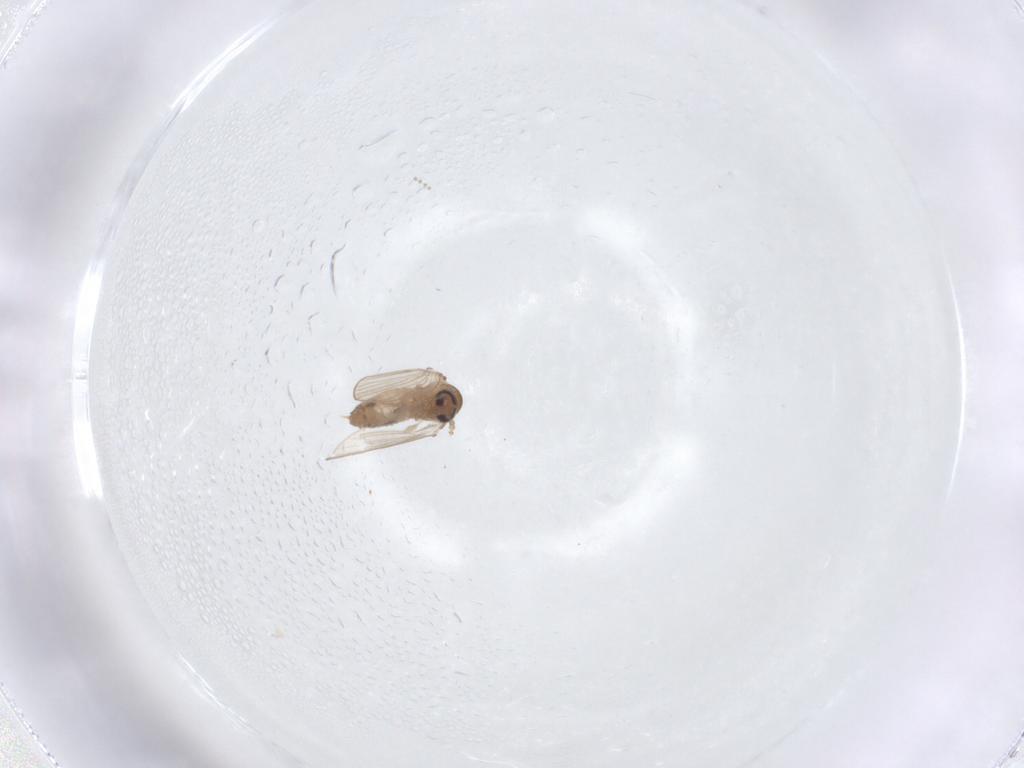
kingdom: Animalia
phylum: Arthropoda
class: Insecta
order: Diptera
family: Psychodidae
